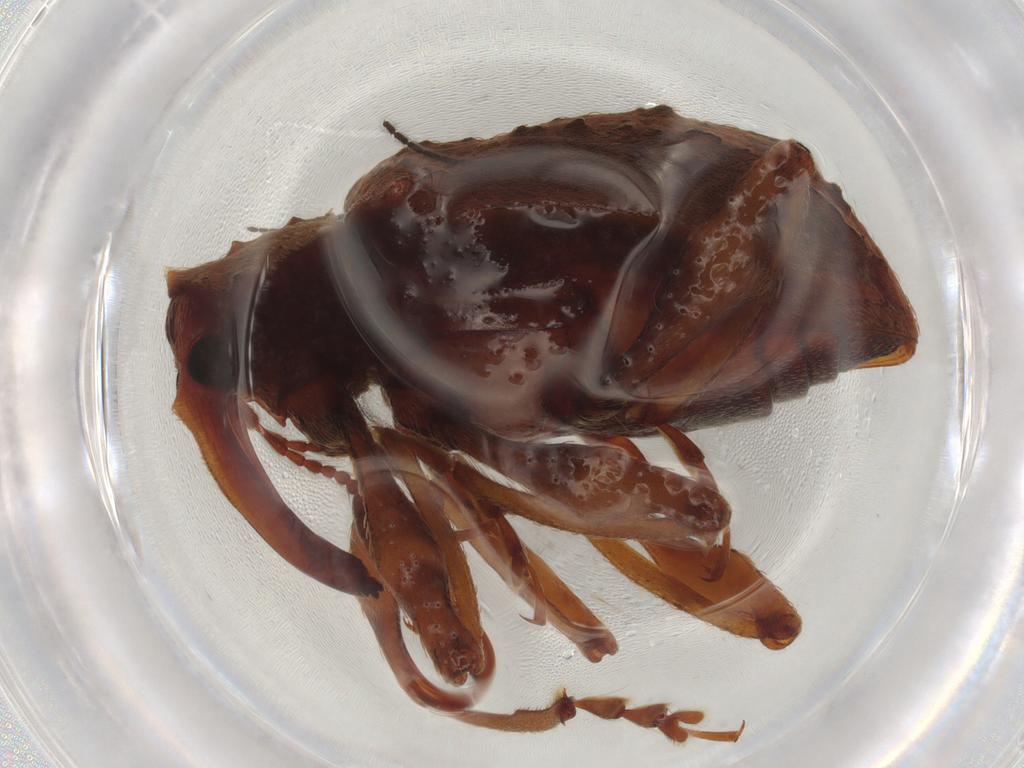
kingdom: Animalia
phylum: Arthropoda
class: Insecta
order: Coleoptera
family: Curculionidae
